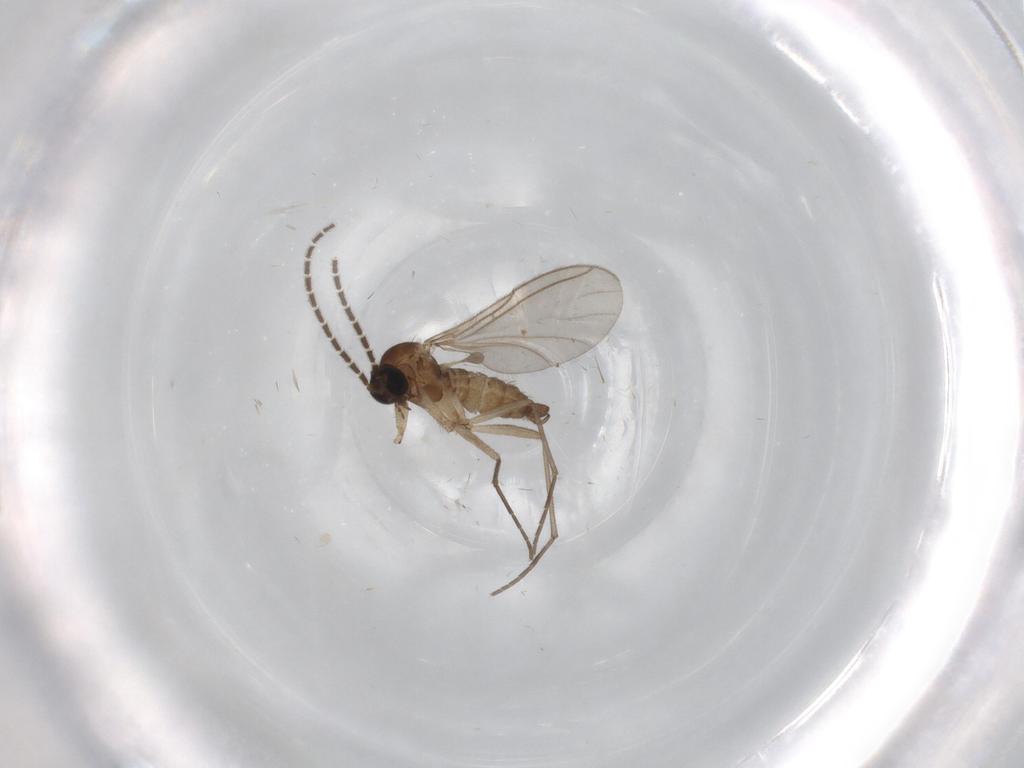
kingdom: Animalia
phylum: Arthropoda
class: Insecta
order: Diptera
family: Sciaridae
